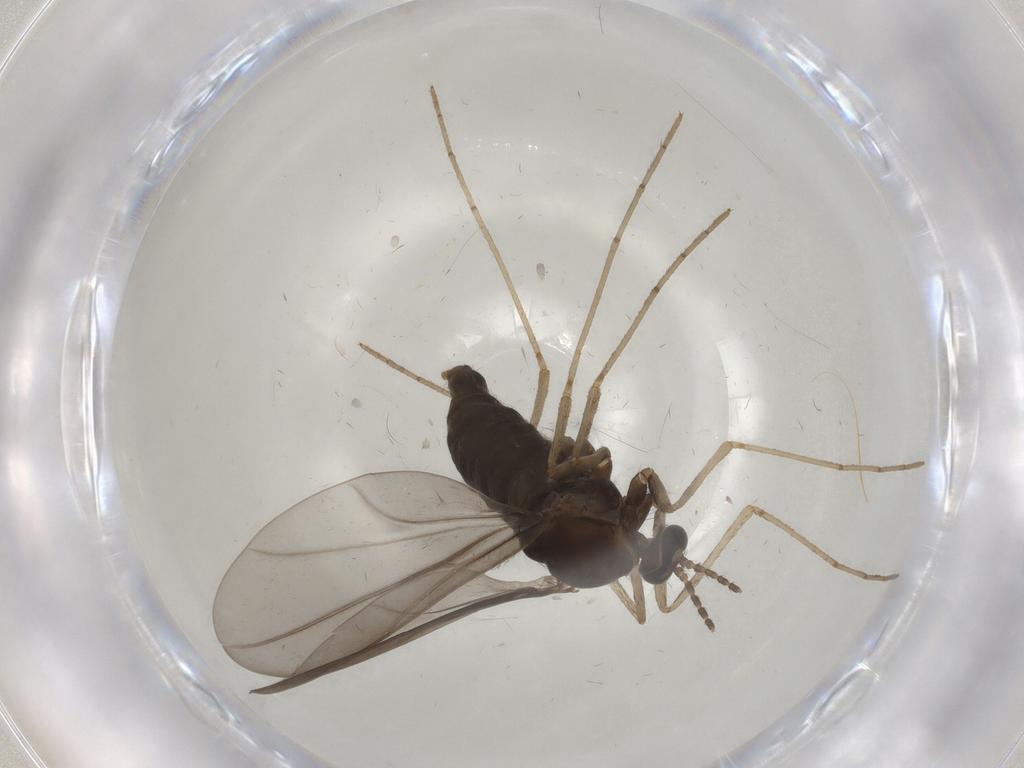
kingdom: Animalia
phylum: Arthropoda
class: Insecta
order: Diptera
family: Cecidomyiidae
